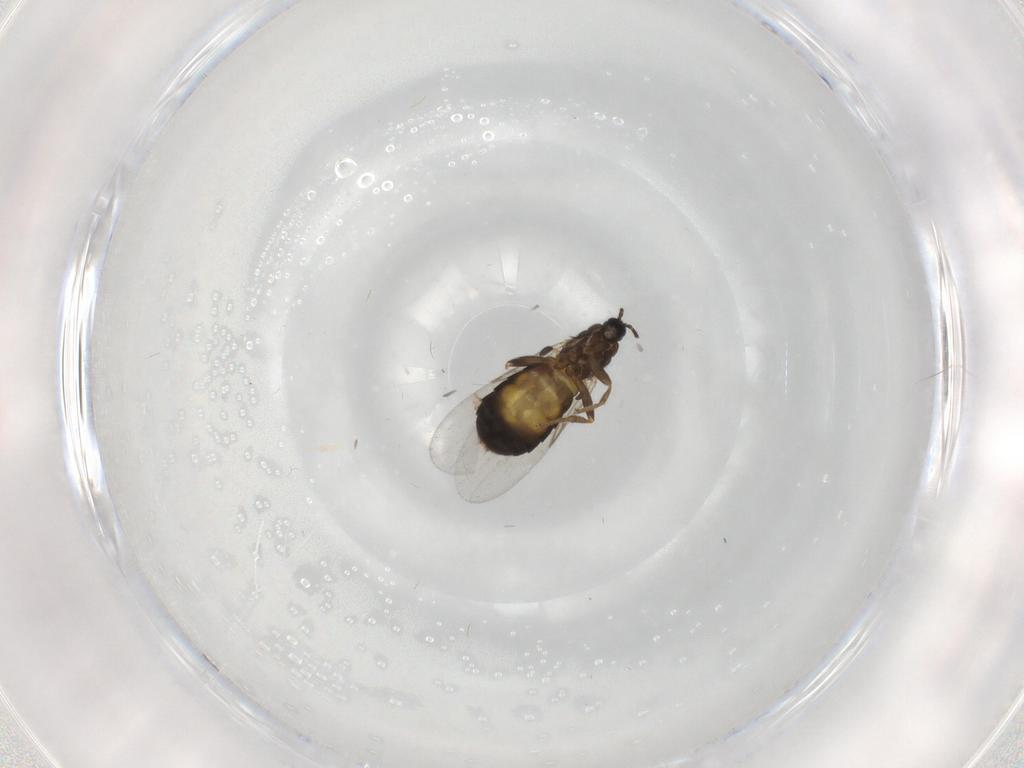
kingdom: Animalia
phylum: Arthropoda
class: Insecta
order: Diptera
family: Scatopsidae
